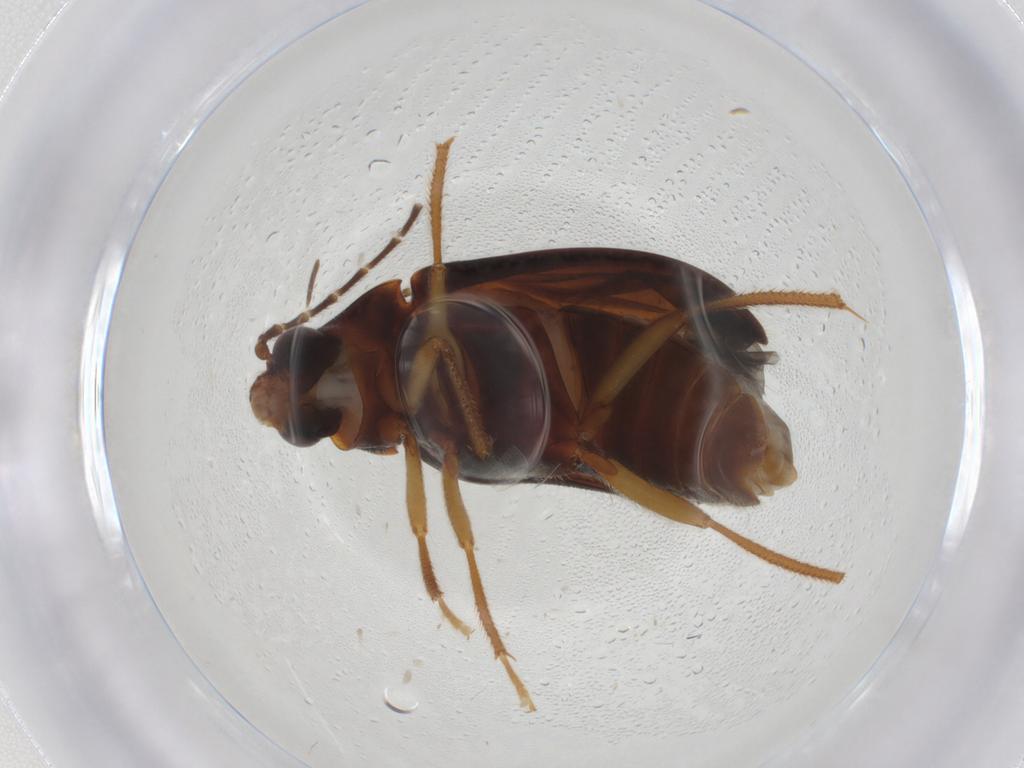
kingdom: Animalia
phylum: Arthropoda
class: Insecta
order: Coleoptera
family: Ptilodactylidae
